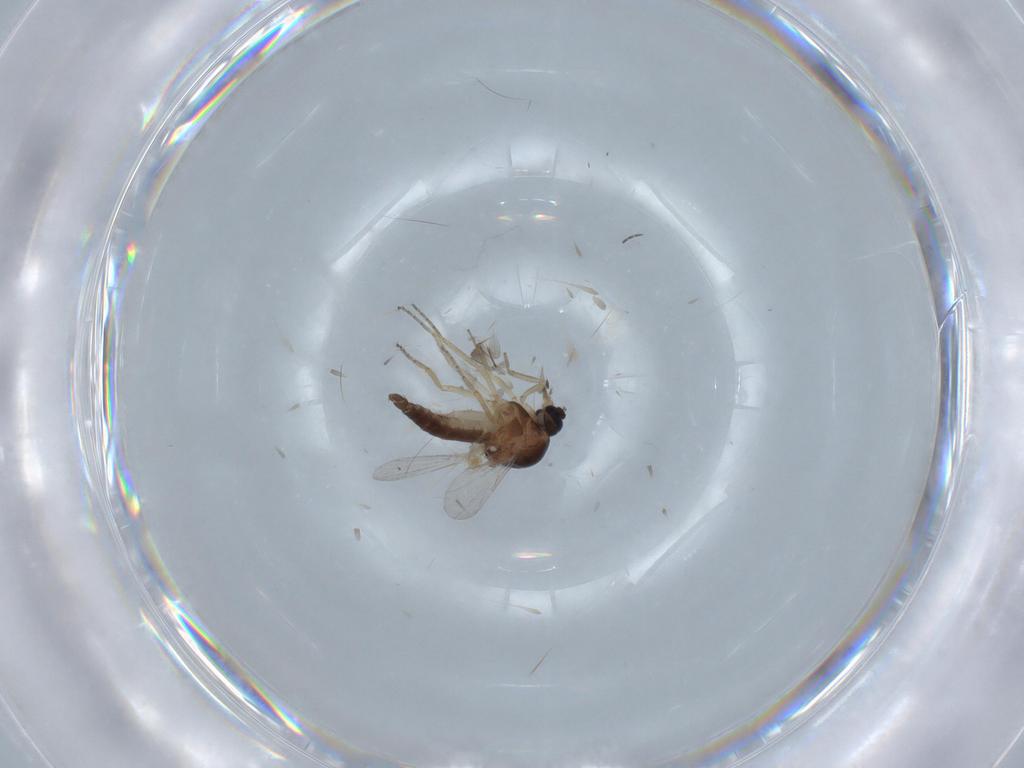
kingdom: Animalia
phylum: Arthropoda
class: Insecta
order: Diptera
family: Ceratopogonidae
